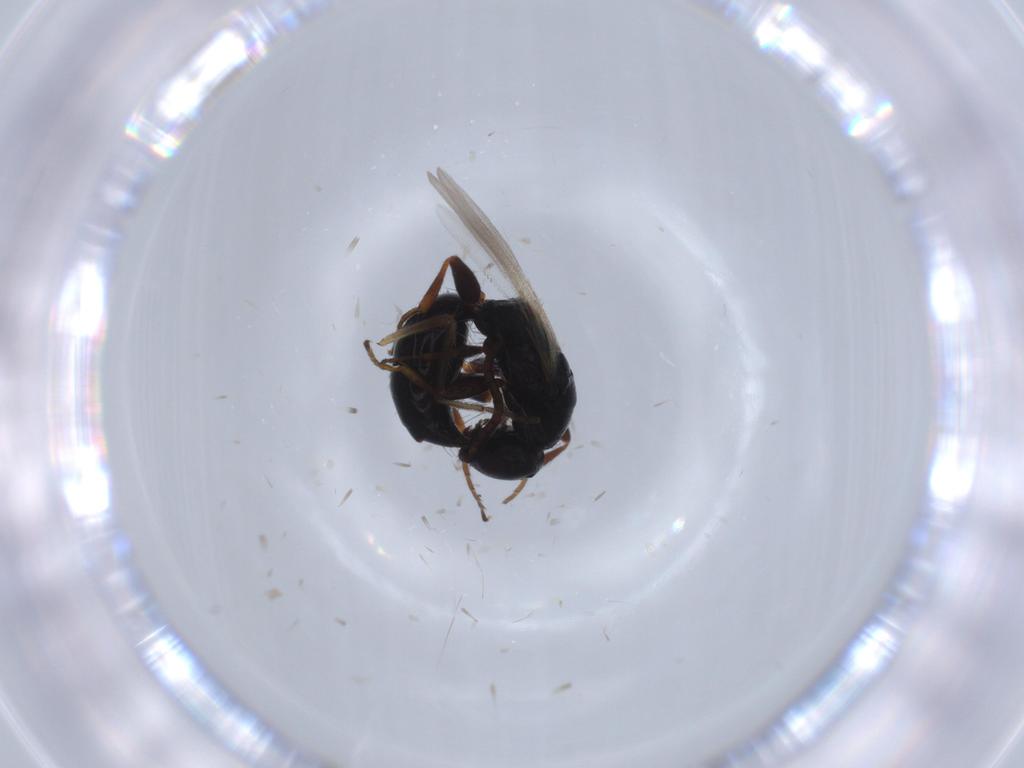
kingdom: Animalia
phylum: Arthropoda
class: Insecta
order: Hymenoptera
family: Bethylidae
